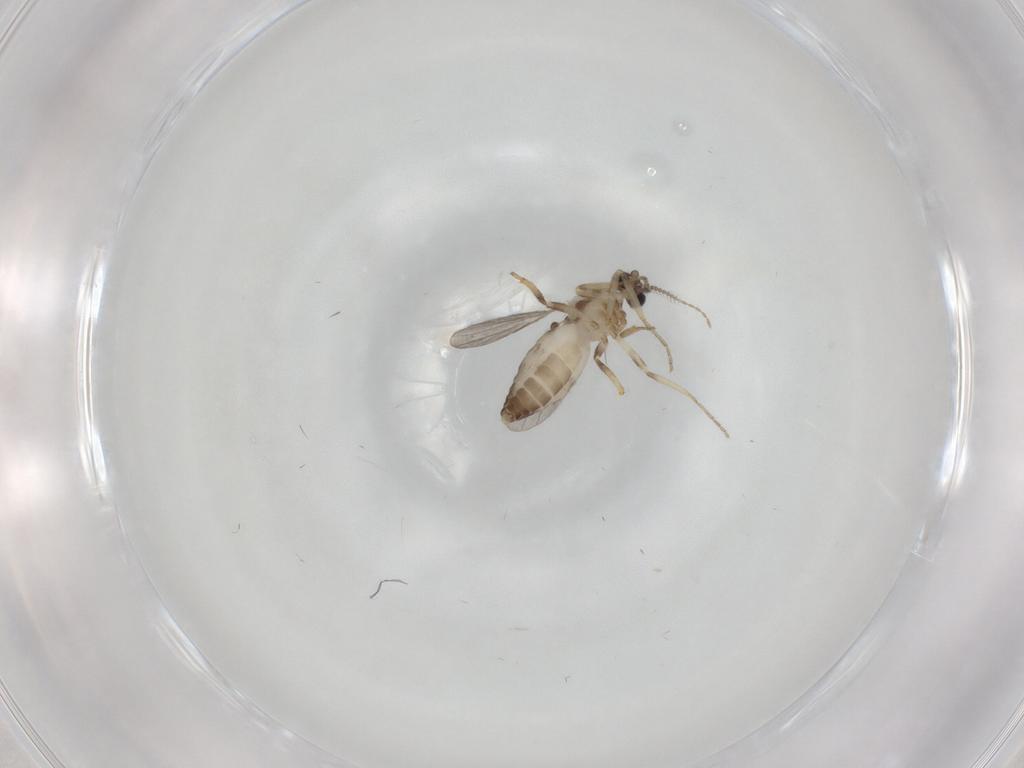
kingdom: Animalia
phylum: Arthropoda
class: Insecta
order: Diptera
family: Ceratopogonidae
